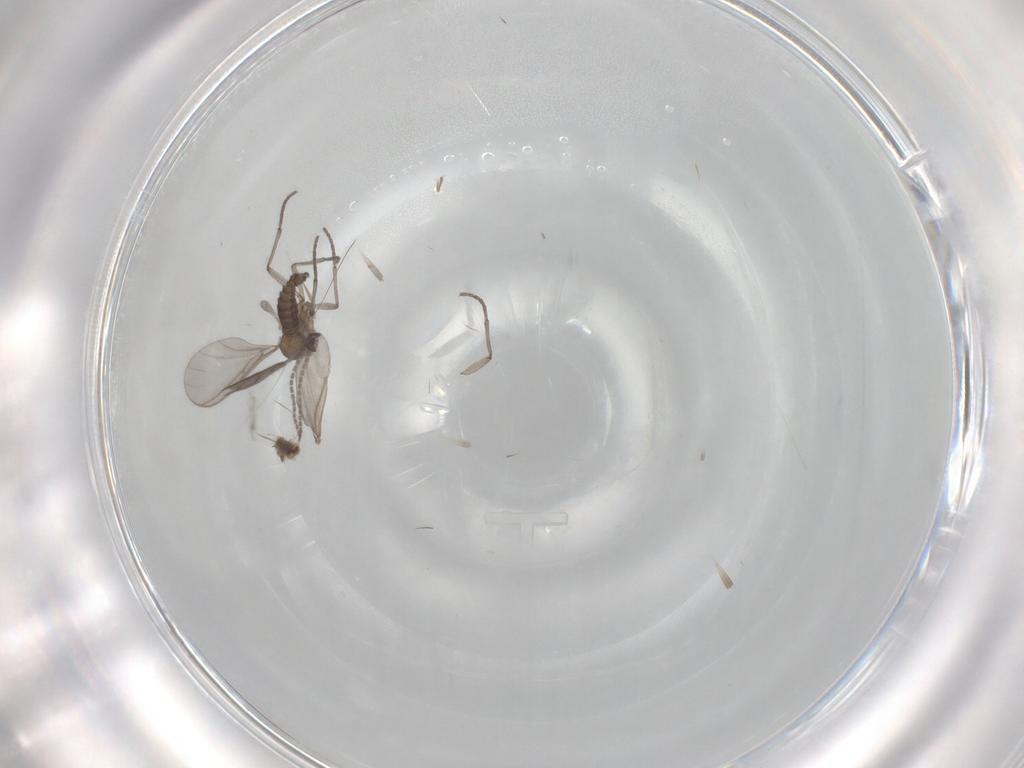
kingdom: Animalia
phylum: Arthropoda
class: Insecta
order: Diptera
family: Sciaridae
